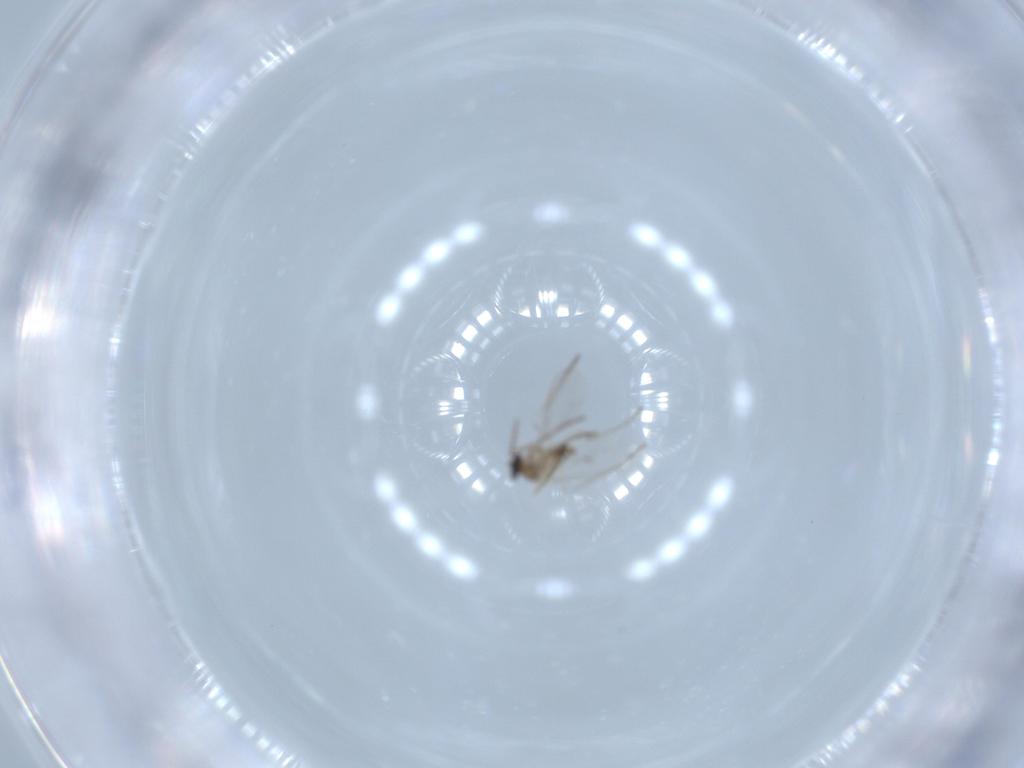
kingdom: Animalia
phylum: Arthropoda
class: Insecta
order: Diptera
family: Cecidomyiidae
